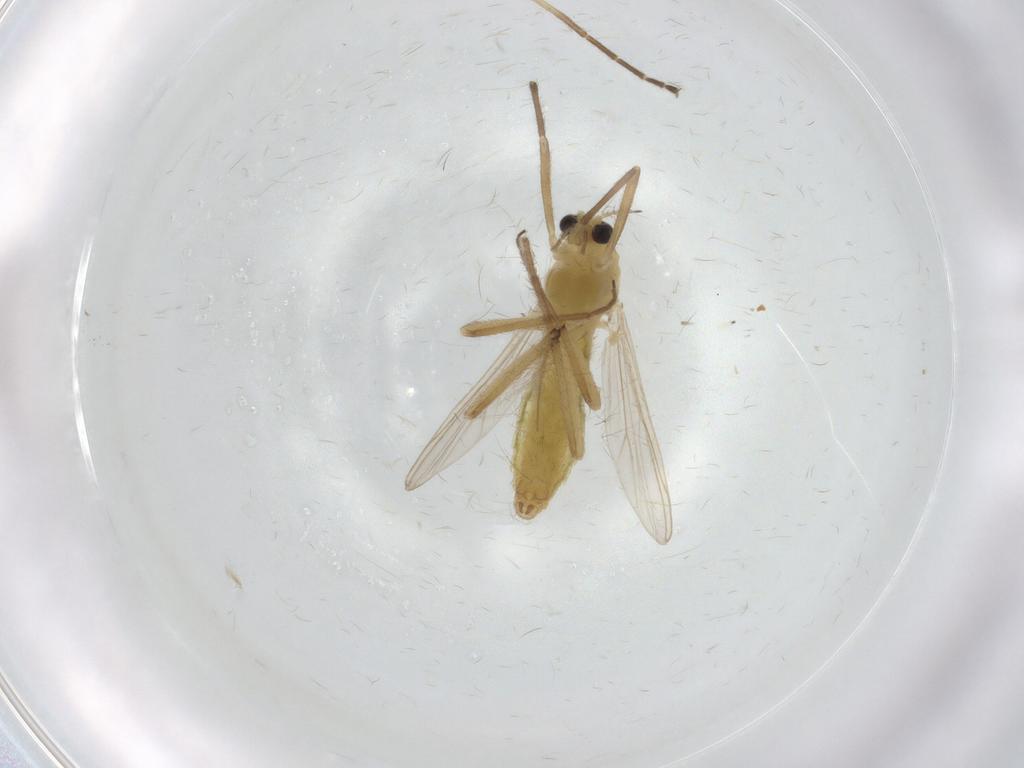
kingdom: Animalia
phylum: Arthropoda
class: Insecta
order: Diptera
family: Chironomidae
